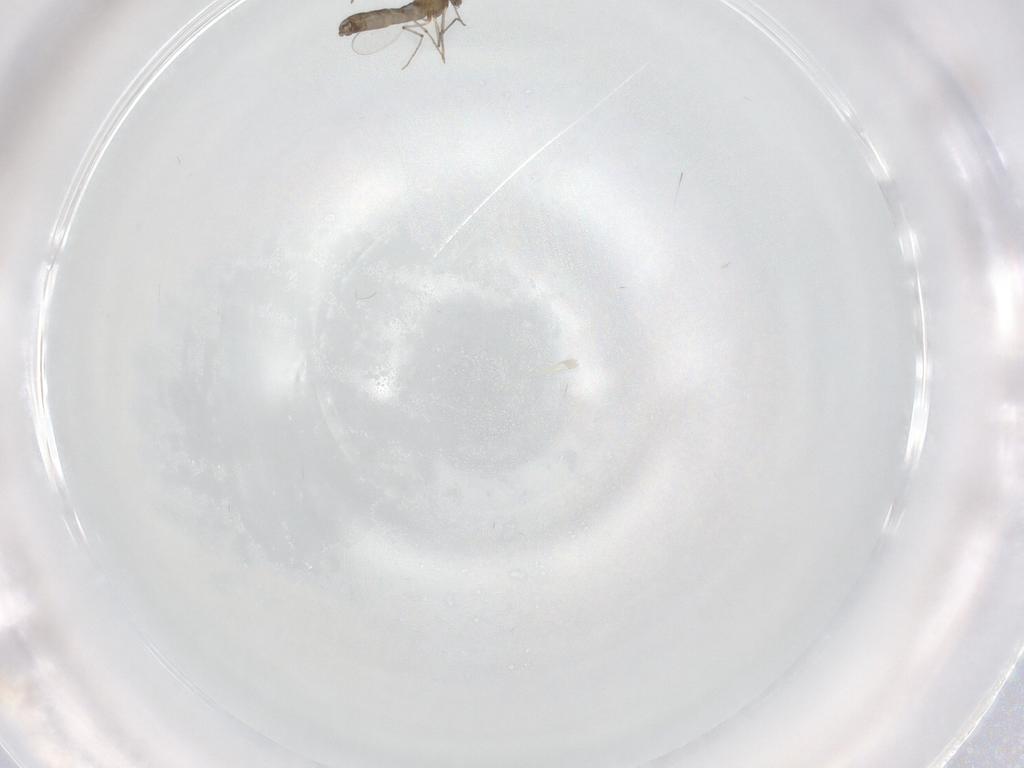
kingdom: Animalia
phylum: Arthropoda
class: Insecta
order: Diptera
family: Chironomidae
